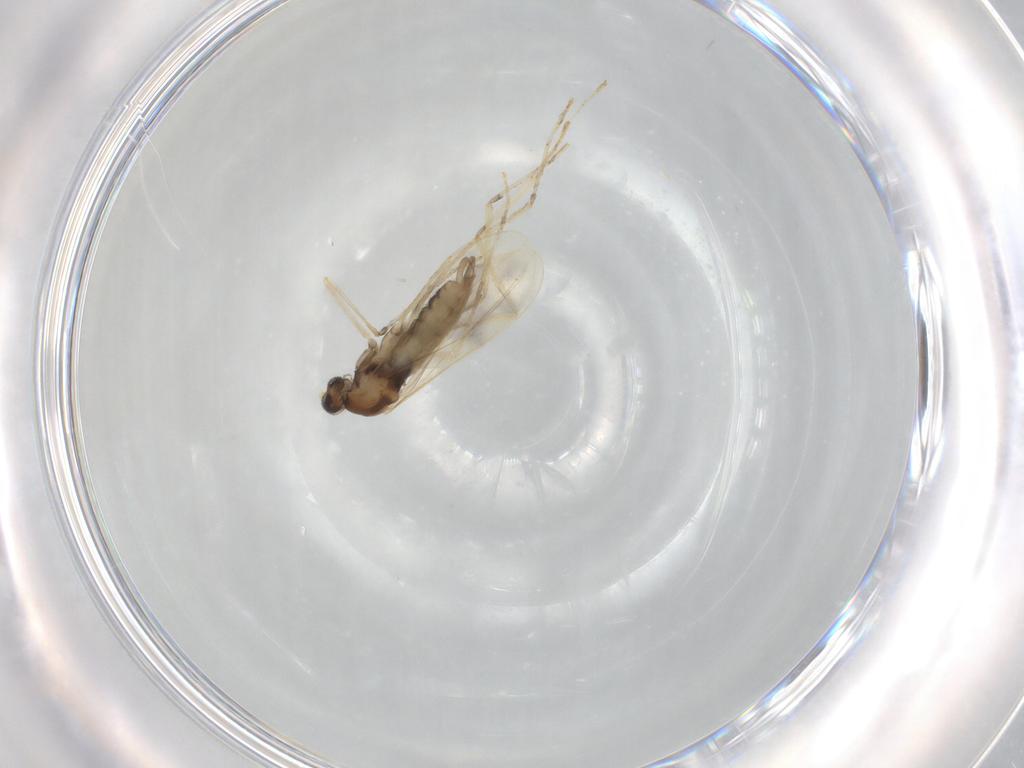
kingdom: Animalia
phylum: Arthropoda
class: Insecta
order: Diptera
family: Cecidomyiidae
